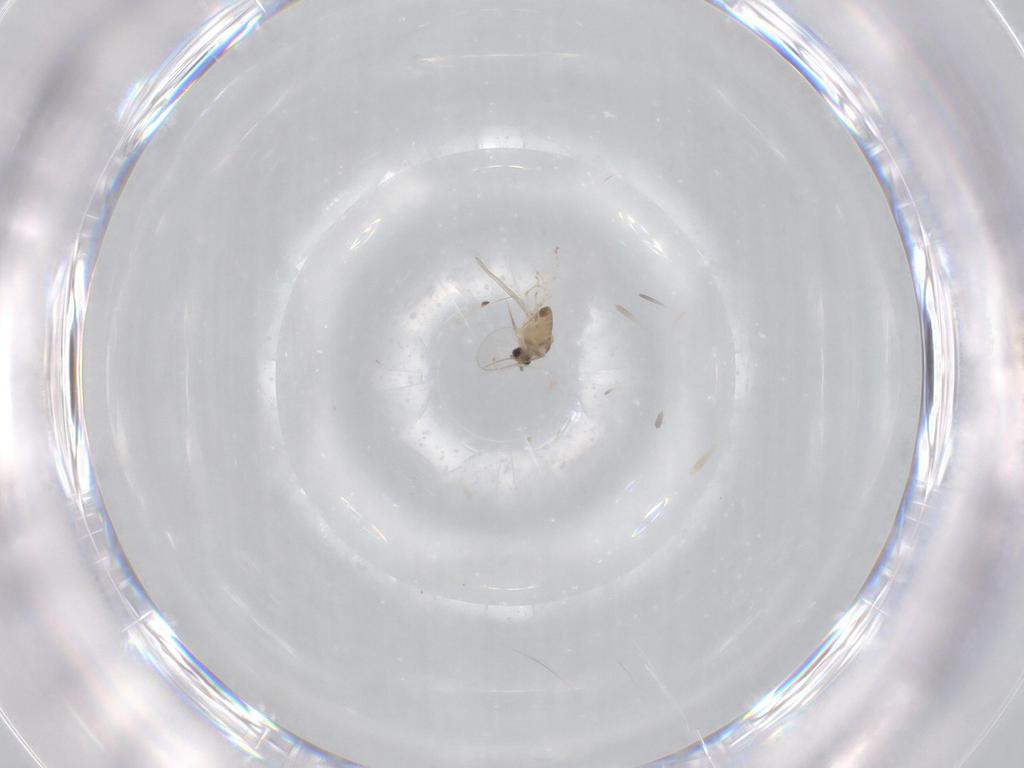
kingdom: Animalia
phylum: Arthropoda
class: Insecta
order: Diptera
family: Cecidomyiidae
